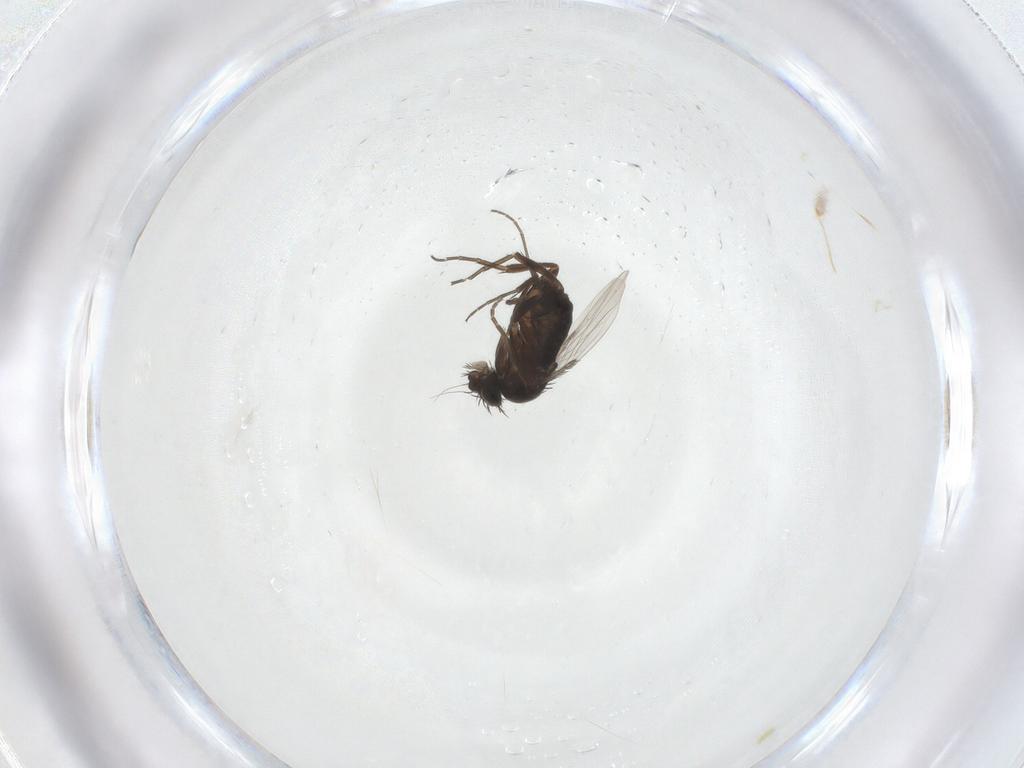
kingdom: Animalia
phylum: Arthropoda
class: Insecta
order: Diptera
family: Phoridae
